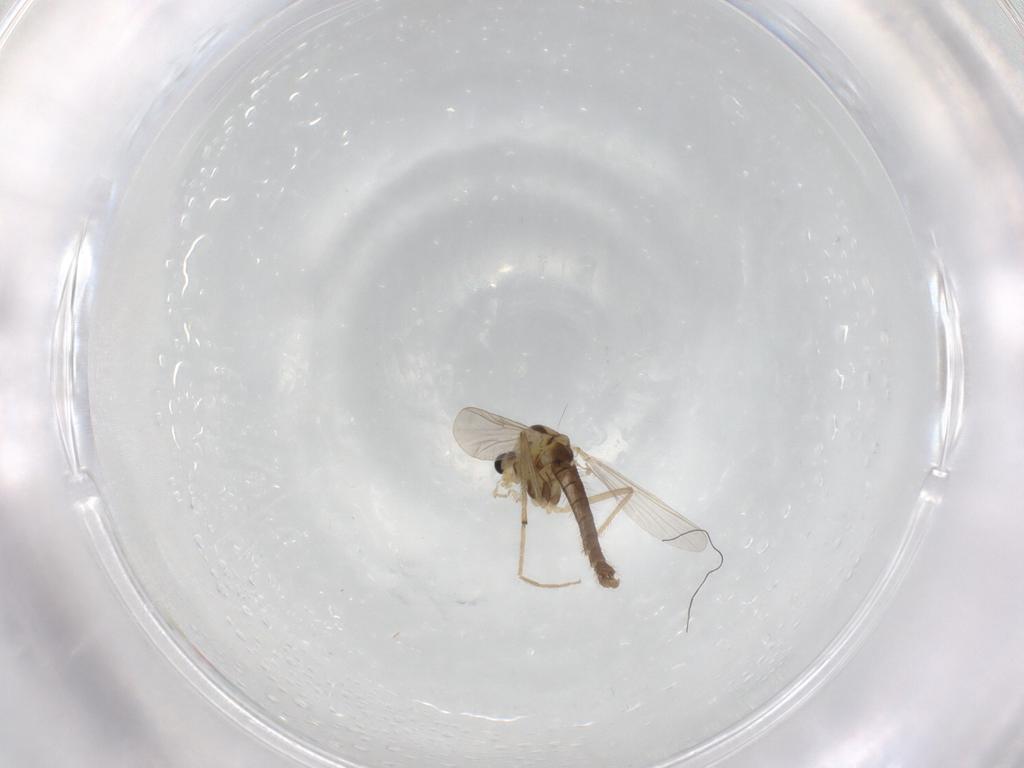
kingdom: Animalia
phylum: Arthropoda
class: Insecta
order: Diptera
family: Chironomidae
